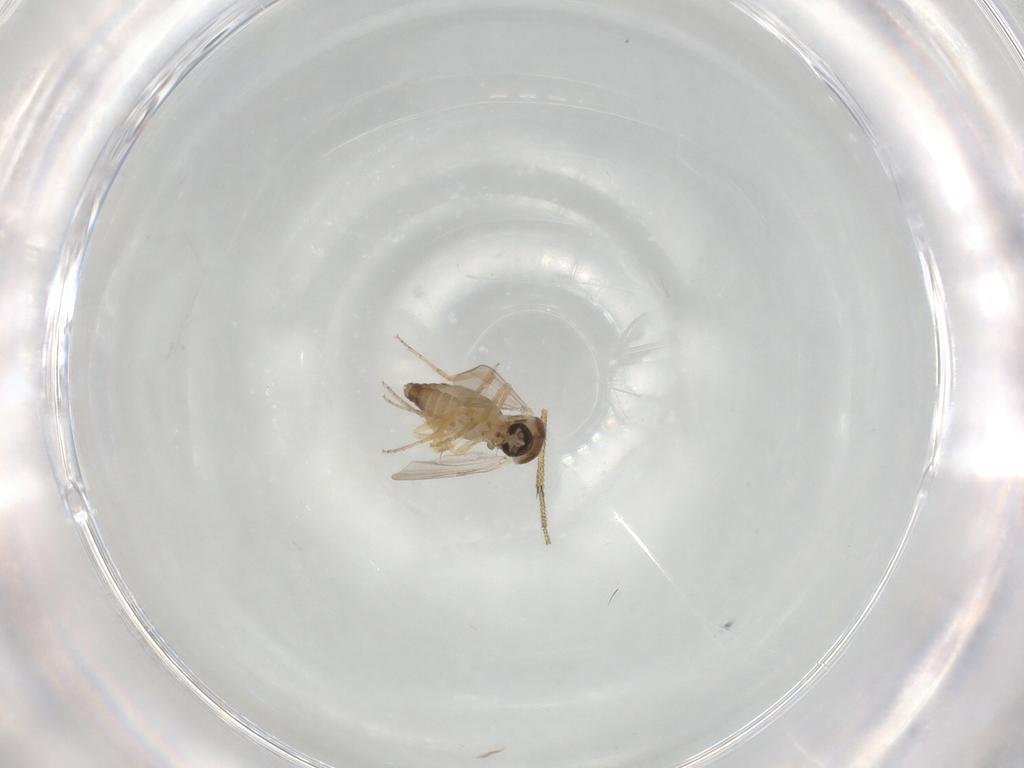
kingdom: Animalia
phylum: Arthropoda
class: Insecta
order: Diptera
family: Ceratopogonidae
